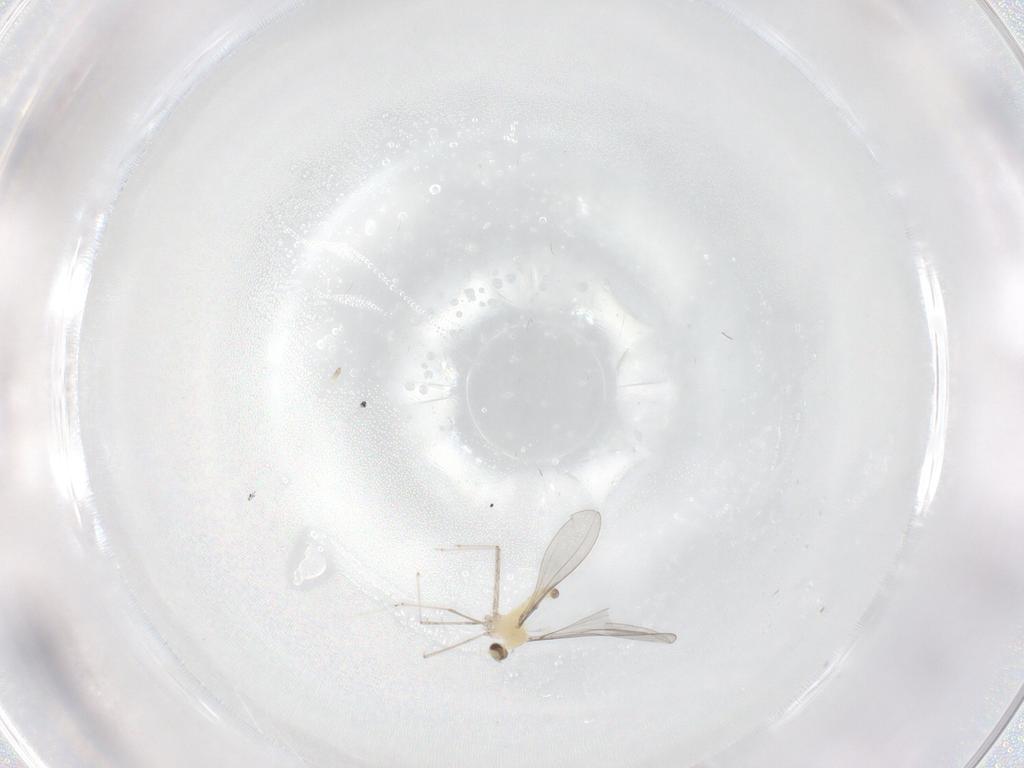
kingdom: Animalia
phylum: Arthropoda
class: Insecta
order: Diptera
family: Cecidomyiidae
